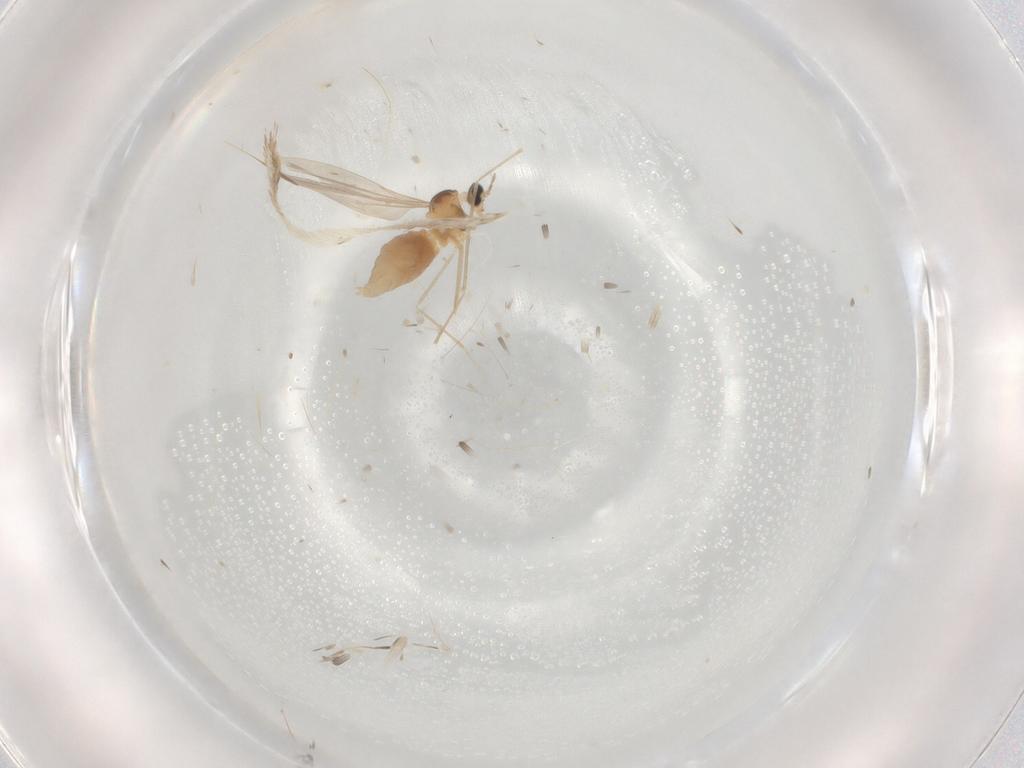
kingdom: Animalia
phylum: Arthropoda
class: Insecta
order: Diptera
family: Cecidomyiidae
